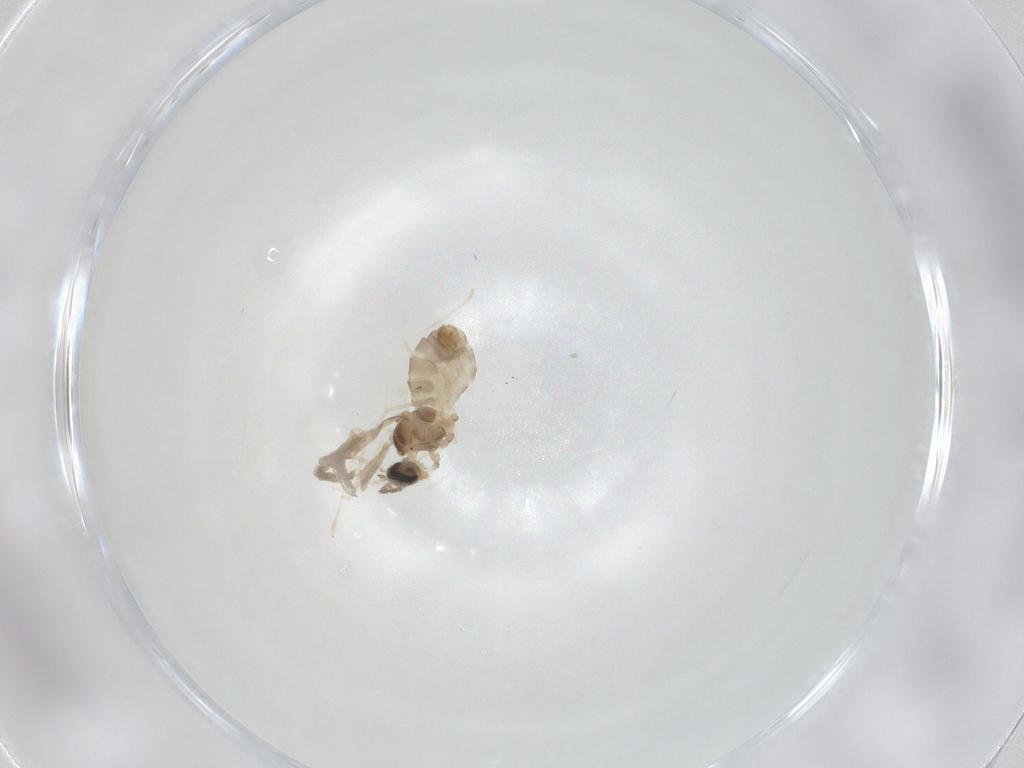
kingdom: Animalia
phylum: Arthropoda
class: Insecta
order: Diptera
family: Cecidomyiidae
